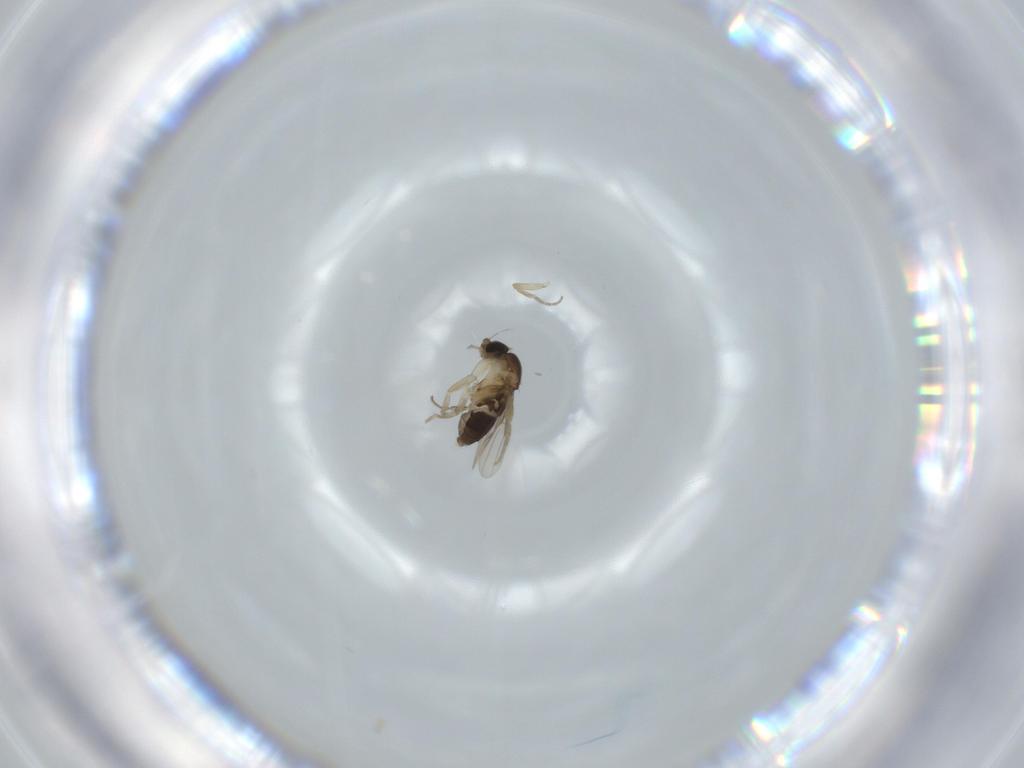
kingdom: Animalia
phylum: Arthropoda
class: Insecta
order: Diptera
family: Phoridae
